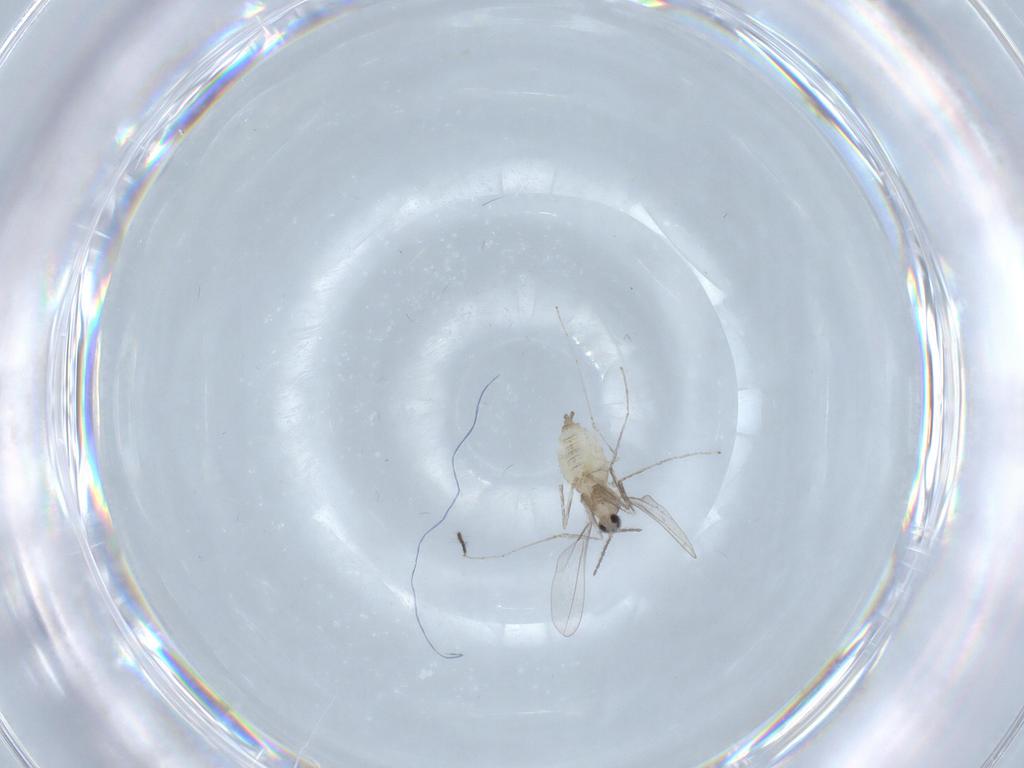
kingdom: Animalia
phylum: Arthropoda
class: Insecta
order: Diptera
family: Cecidomyiidae
